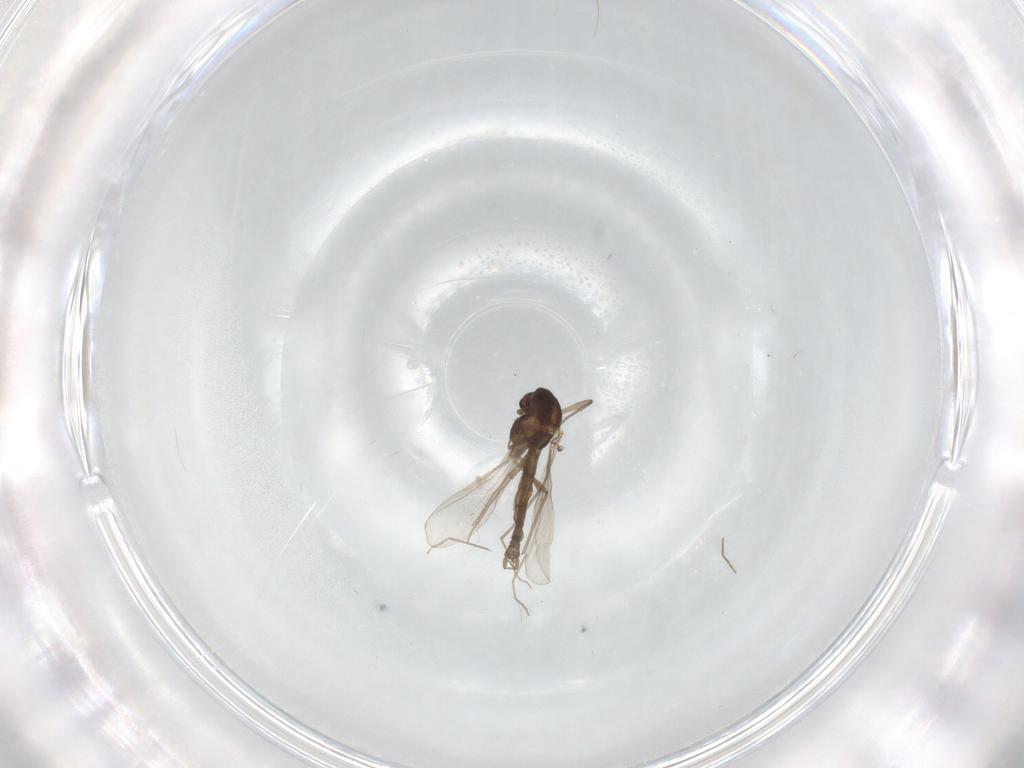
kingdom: Animalia
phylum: Arthropoda
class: Insecta
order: Diptera
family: Chironomidae
